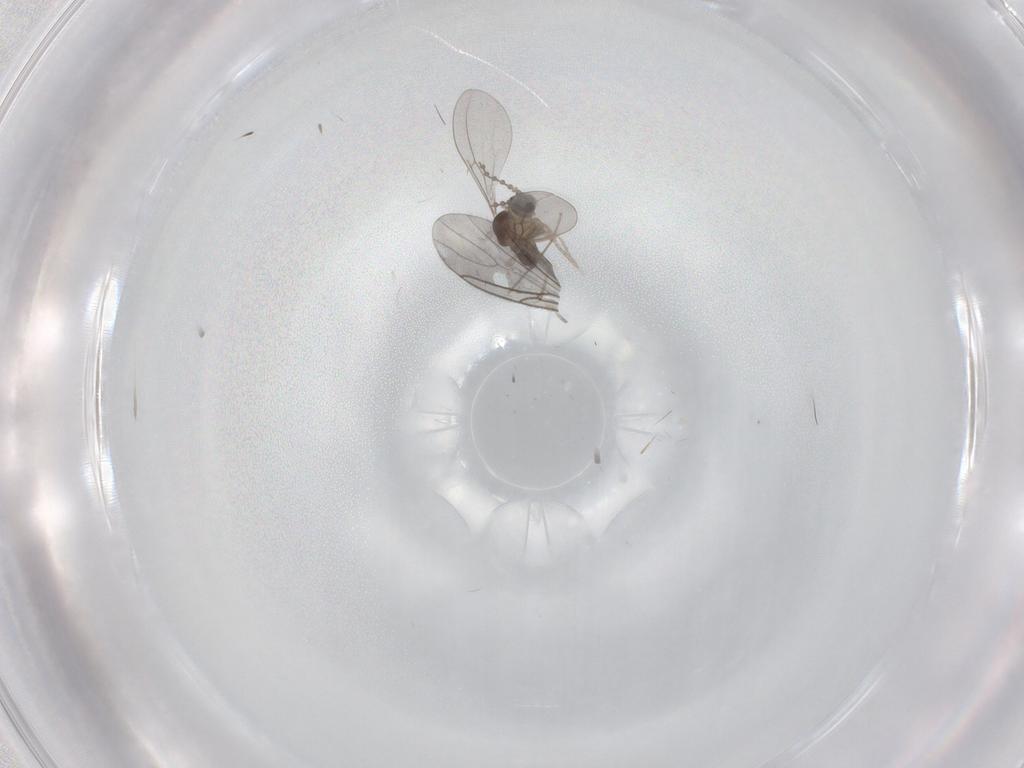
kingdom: Animalia
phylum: Arthropoda
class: Insecta
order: Diptera
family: Cecidomyiidae
